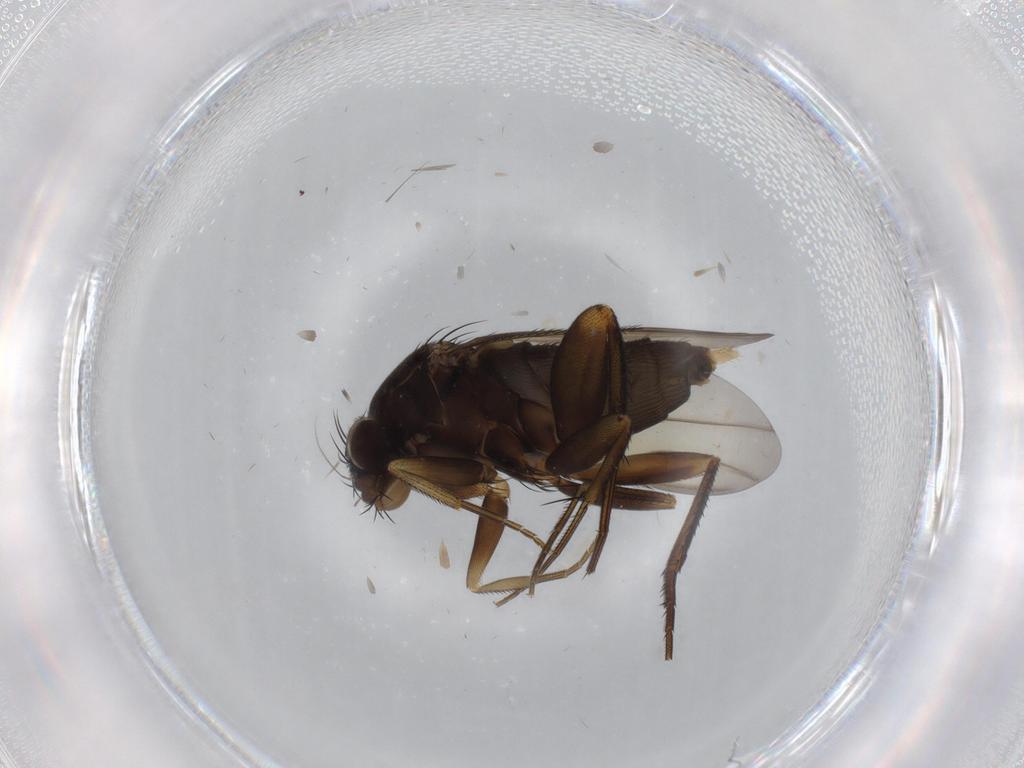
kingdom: Animalia
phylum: Arthropoda
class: Insecta
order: Diptera
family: Phoridae
